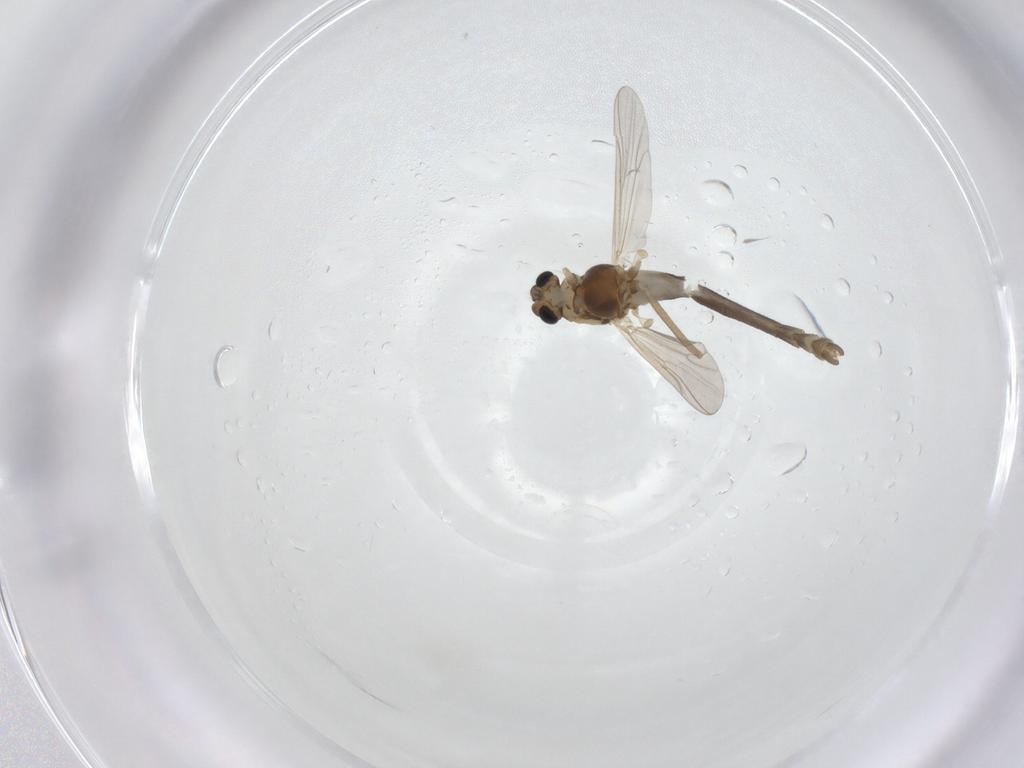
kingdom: Animalia
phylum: Arthropoda
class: Insecta
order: Diptera
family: Chironomidae
